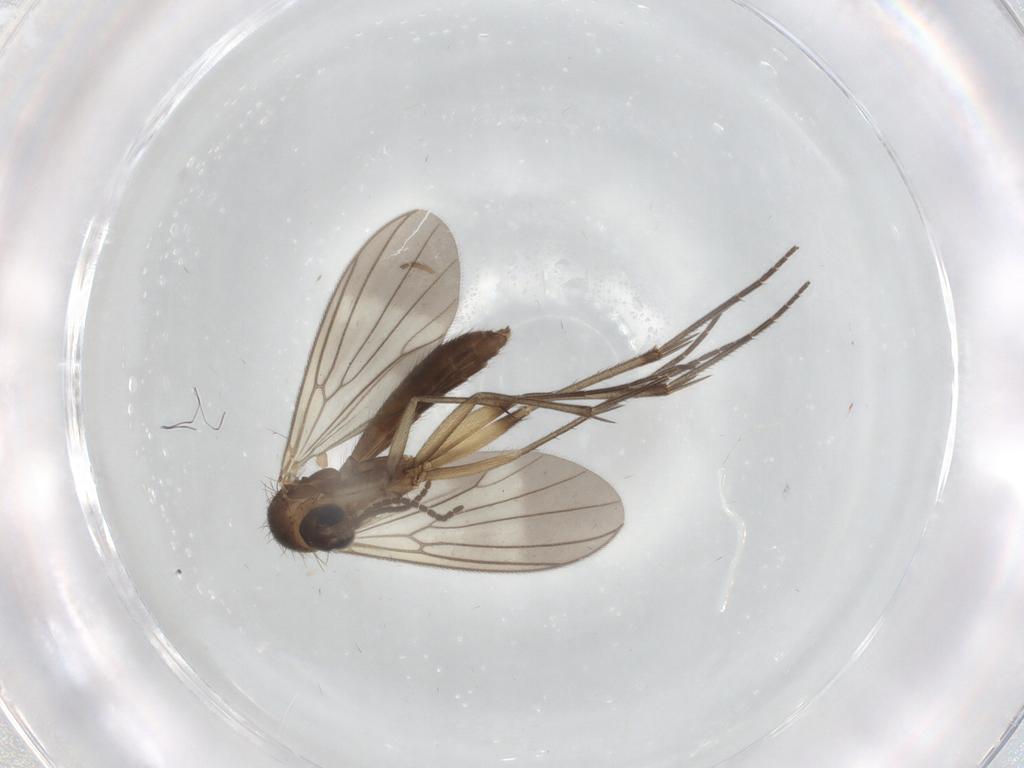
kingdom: Animalia
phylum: Arthropoda
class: Insecta
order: Diptera
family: Mycetophilidae
